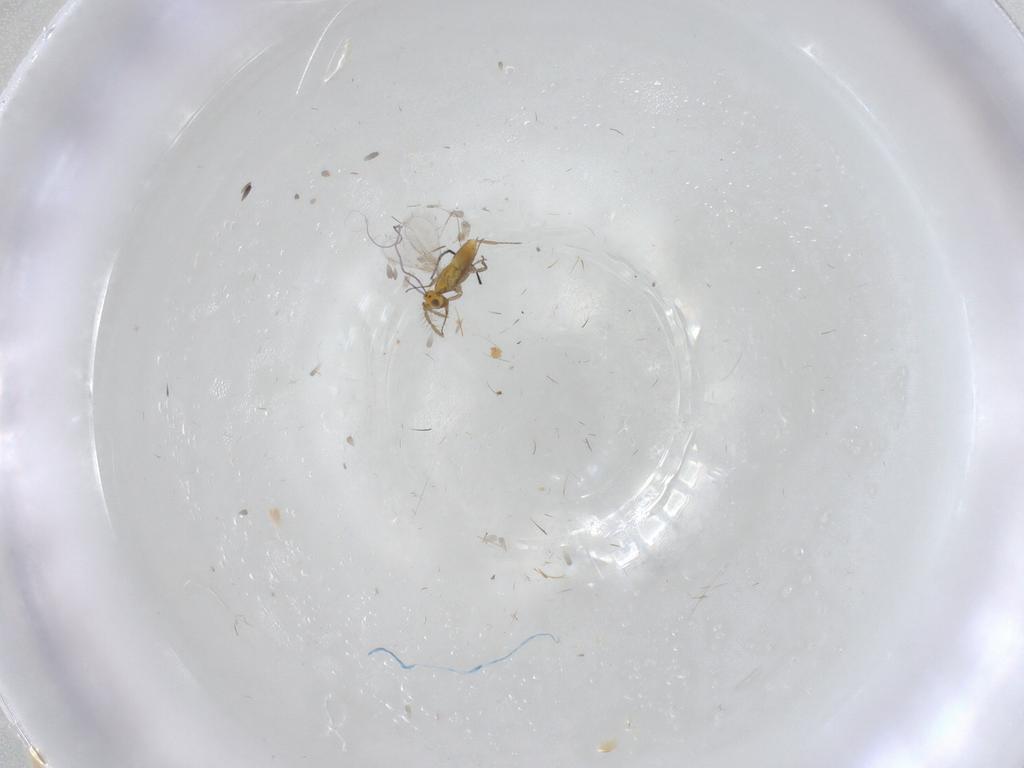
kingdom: Animalia
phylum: Arthropoda
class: Insecta
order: Hymenoptera
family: Aphelinidae
